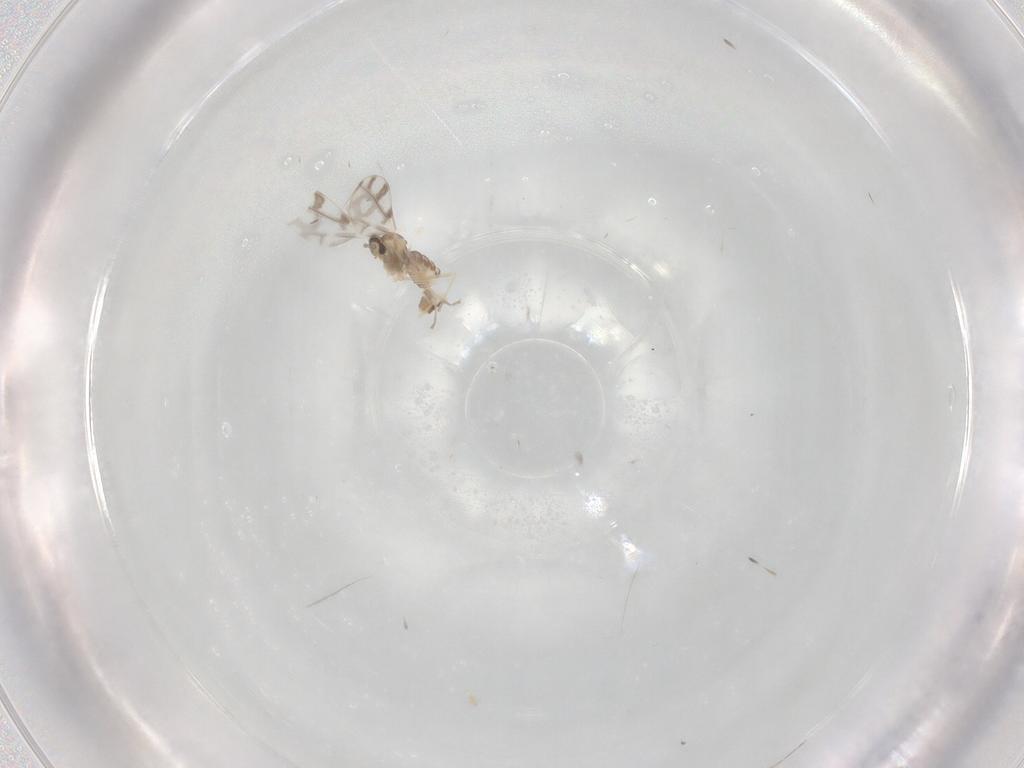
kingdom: Animalia
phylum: Arthropoda
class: Insecta
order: Diptera
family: Cecidomyiidae
